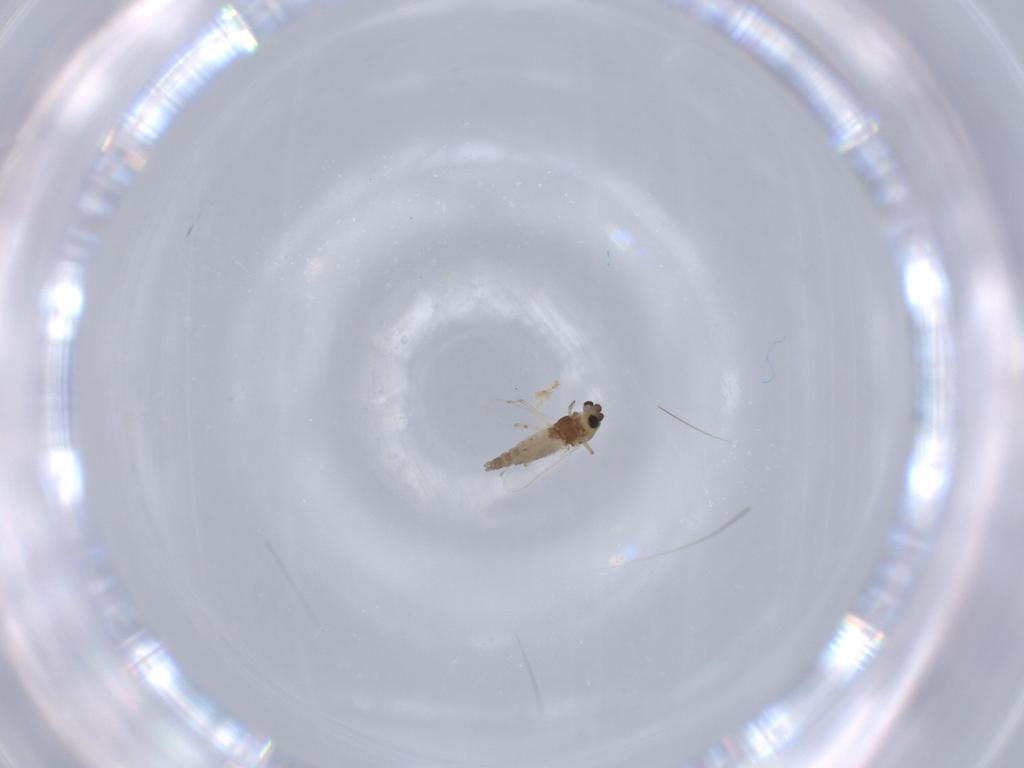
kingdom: Animalia
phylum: Arthropoda
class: Insecta
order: Diptera
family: Chironomidae
